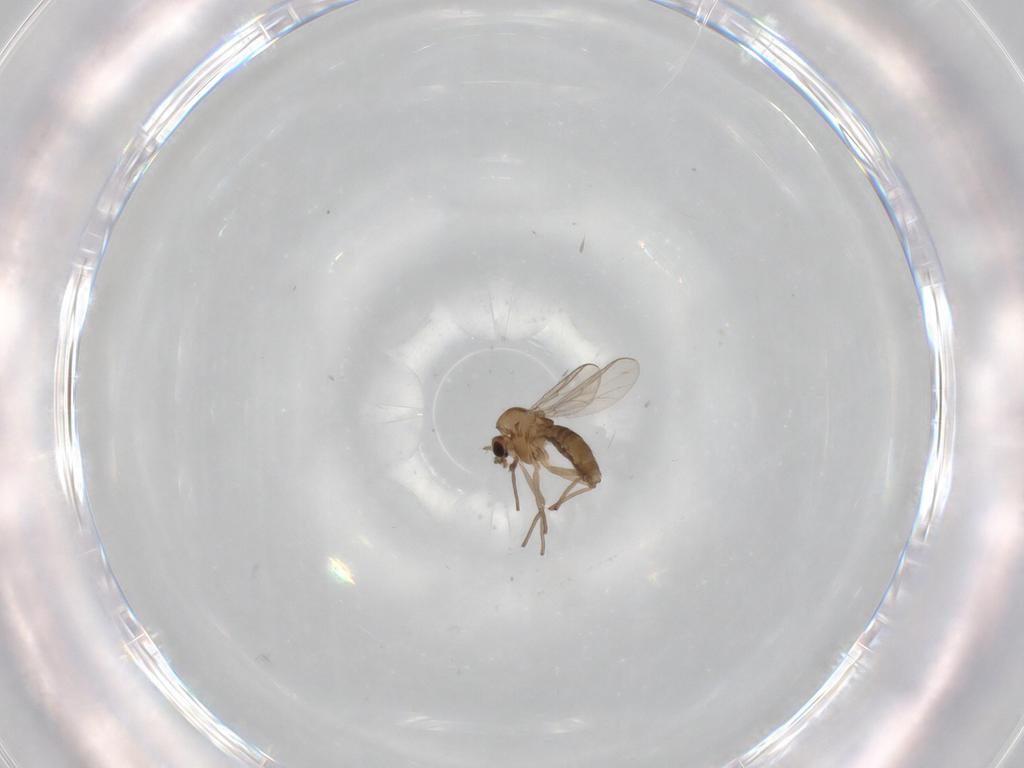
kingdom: Animalia
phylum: Arthropoda
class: Insecta
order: Diptera
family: Chironomidae
